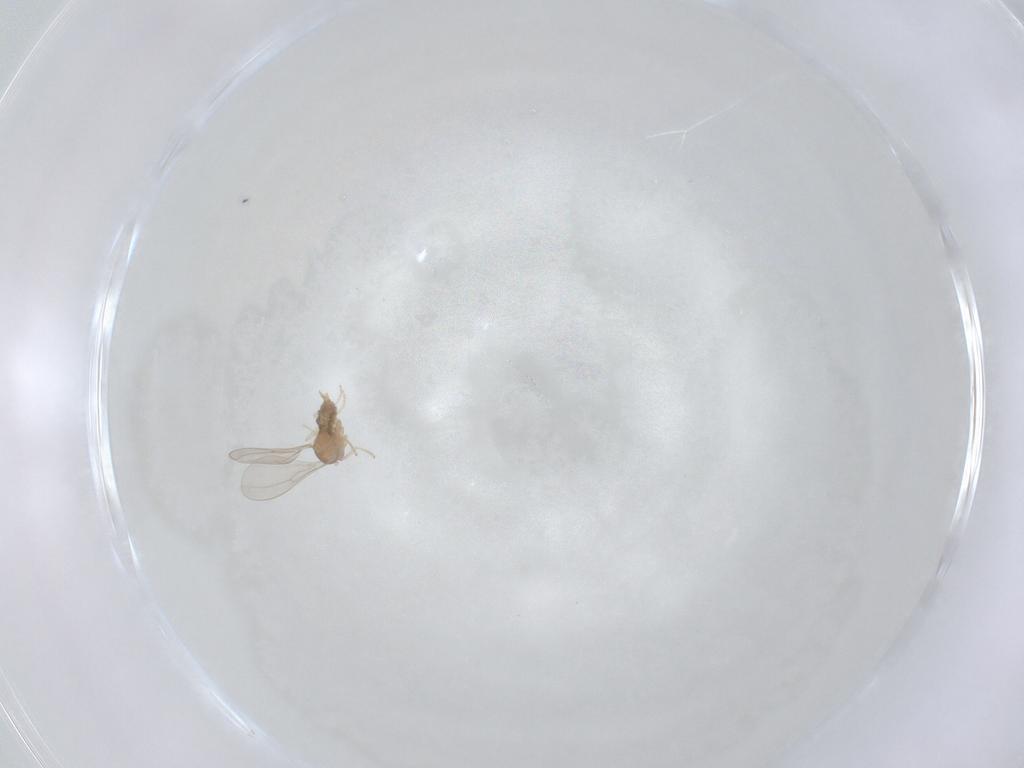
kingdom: Animalia
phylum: Arthropoda
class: Insecta
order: Diptera
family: Cecidomyiidae
